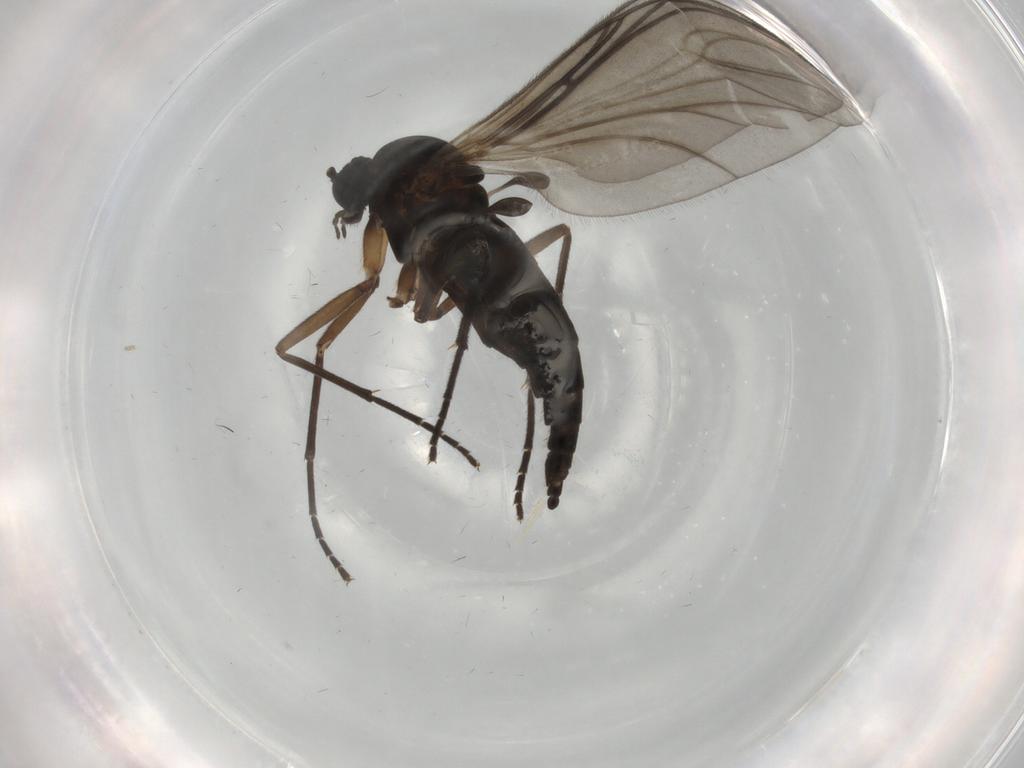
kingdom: Animalia
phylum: Arthropoda
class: Insecta
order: Diptera
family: Sciaridae
